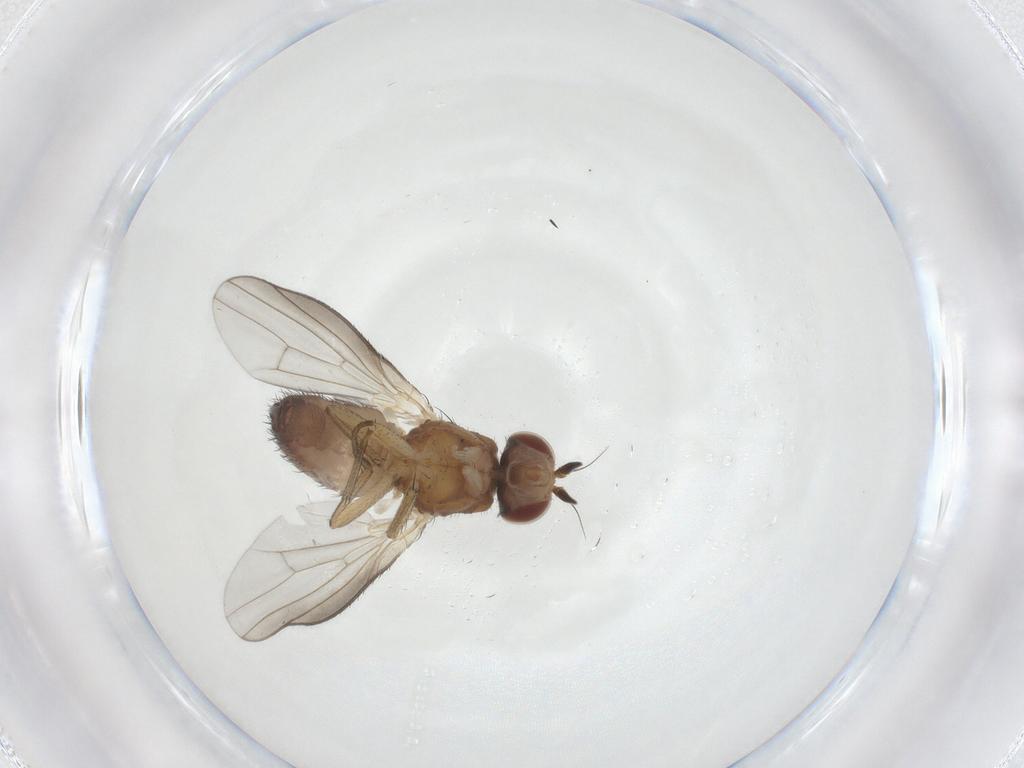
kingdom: Animalia
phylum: Arthropoda
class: Insecta
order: Diptera
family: Heleomyzidae
